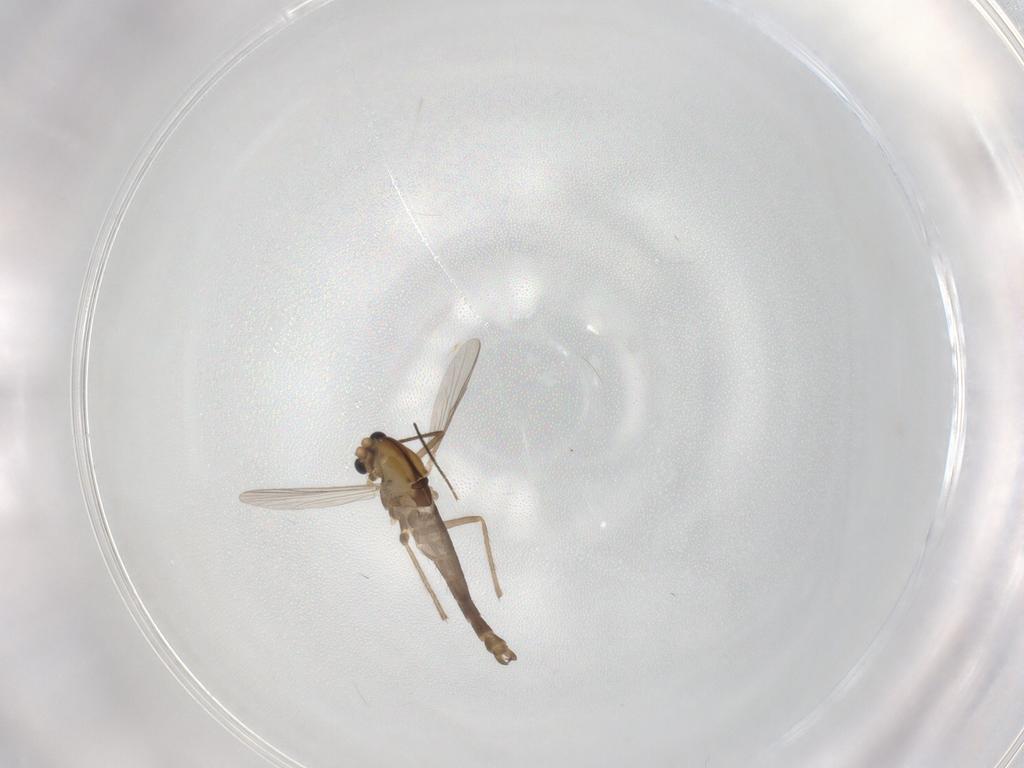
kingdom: Animalia
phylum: Arthropoda
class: Insecta
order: Diptera
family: Chironomidae
